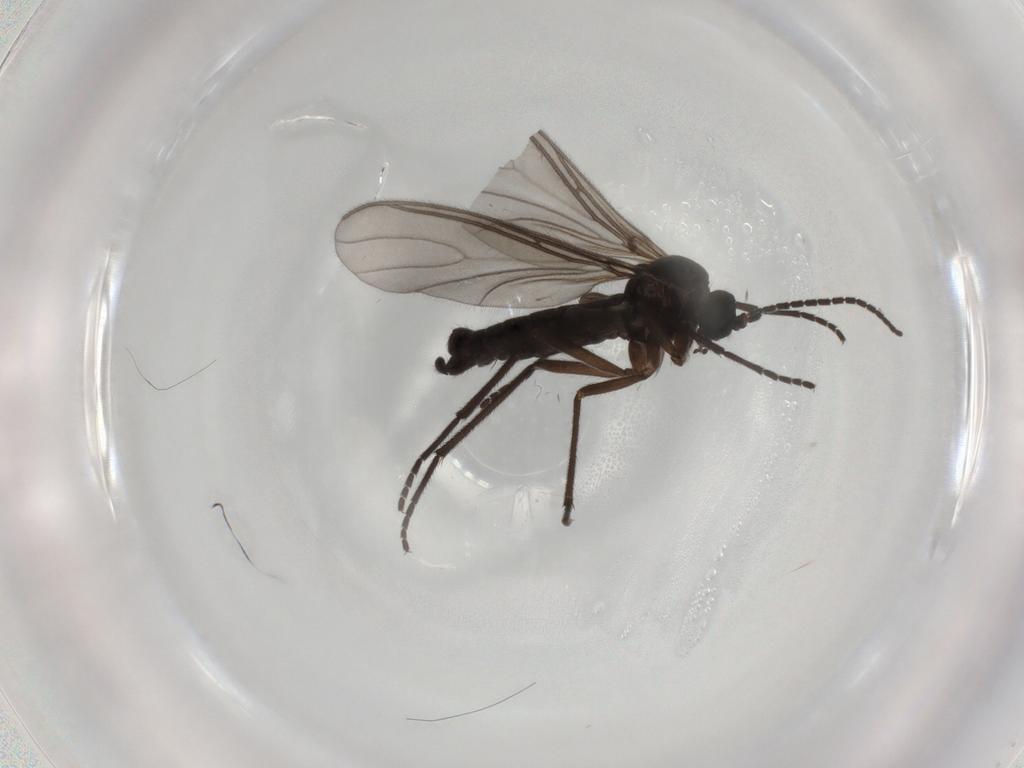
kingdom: Animalia
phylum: Arthropoda
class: Insecta
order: Diptera
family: Sciaridae
